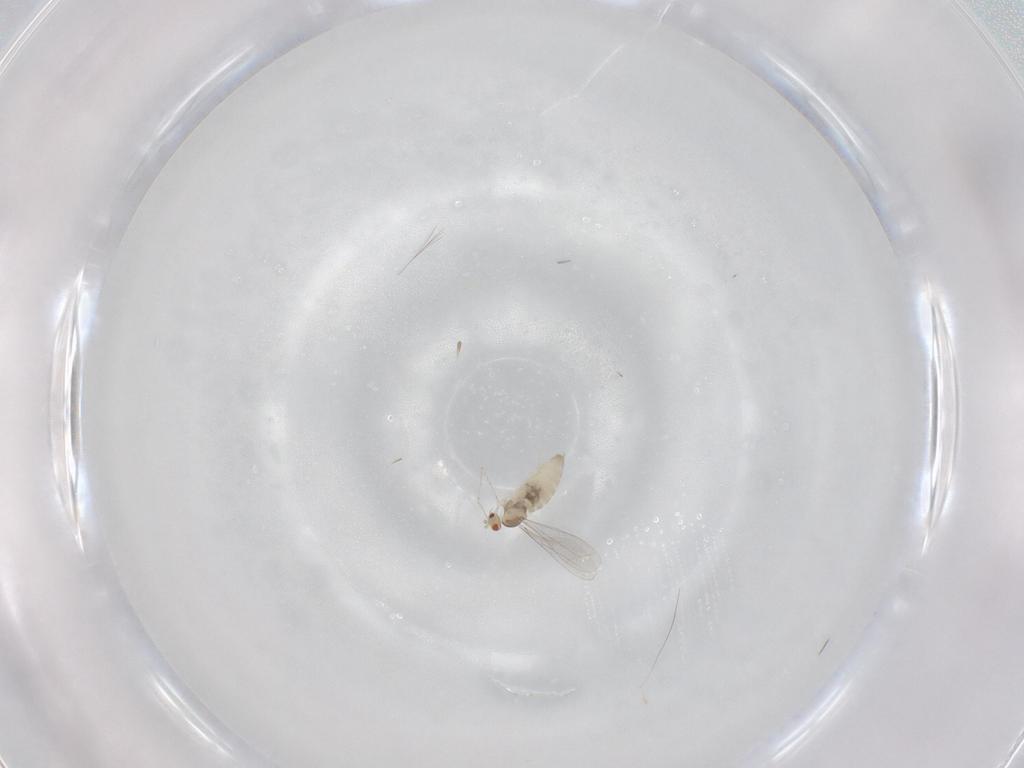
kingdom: Animalia
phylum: Arthropoda
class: Insecta
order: Diptera
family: Cecidomyiidae
